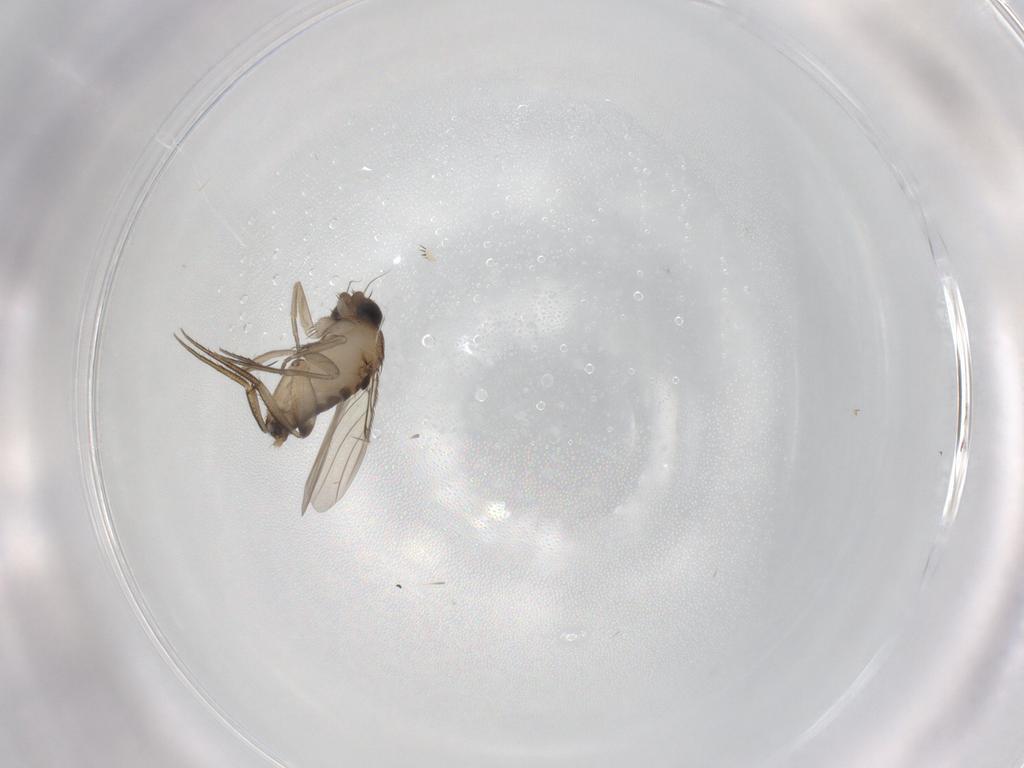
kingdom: Animalia
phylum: Arthropoda
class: Insecta
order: Diptera
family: Phoridae
